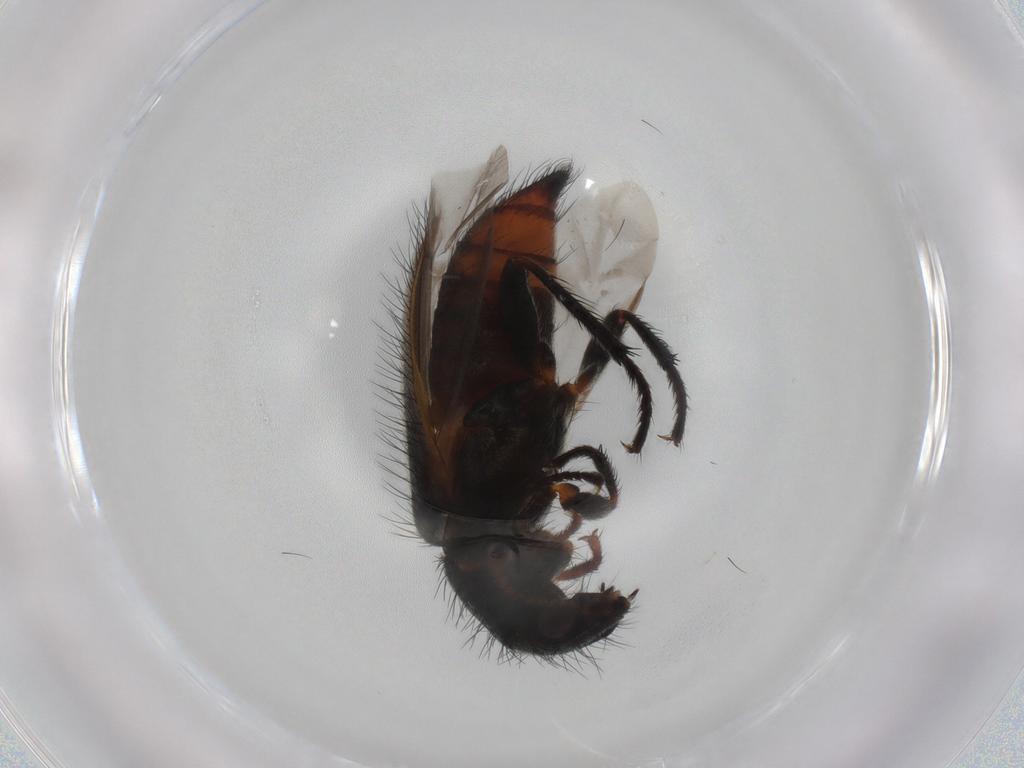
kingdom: Animalia
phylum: Arthropoda
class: Insecta
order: Coleoptera
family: Melyridae
